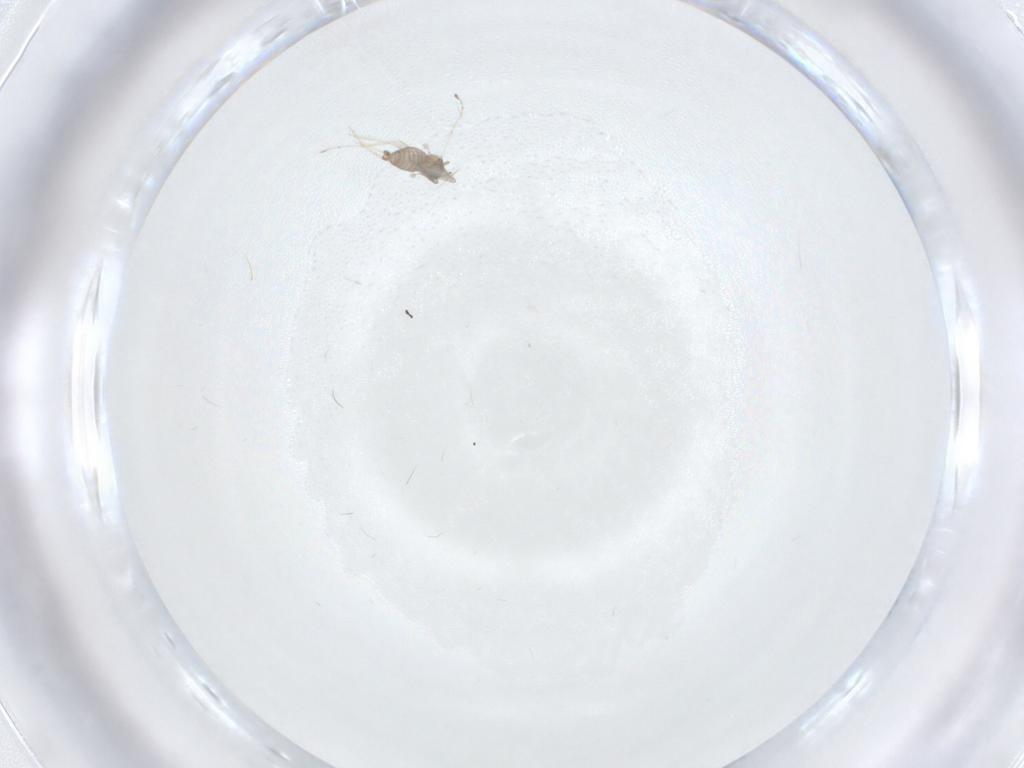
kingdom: Animalia
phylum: Arthropoda
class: Insecta
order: Diptera
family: Cecidomyiidae
